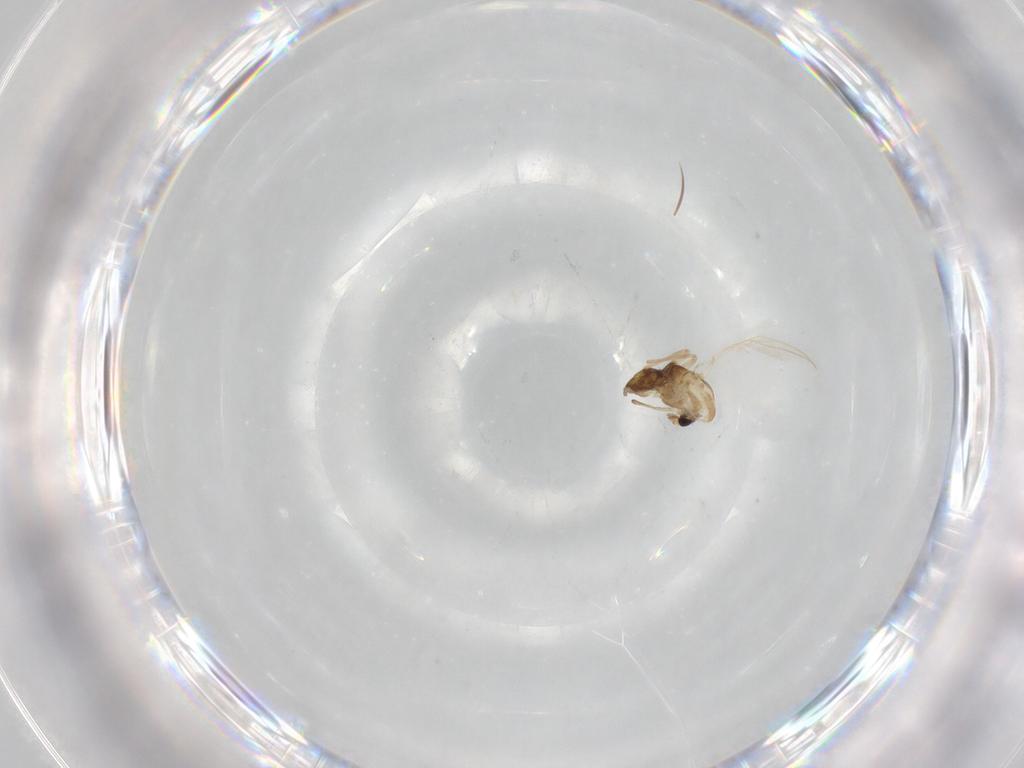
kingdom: Animalia
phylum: Arthropoda
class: Insecta
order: Diptera
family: Chironomidae
